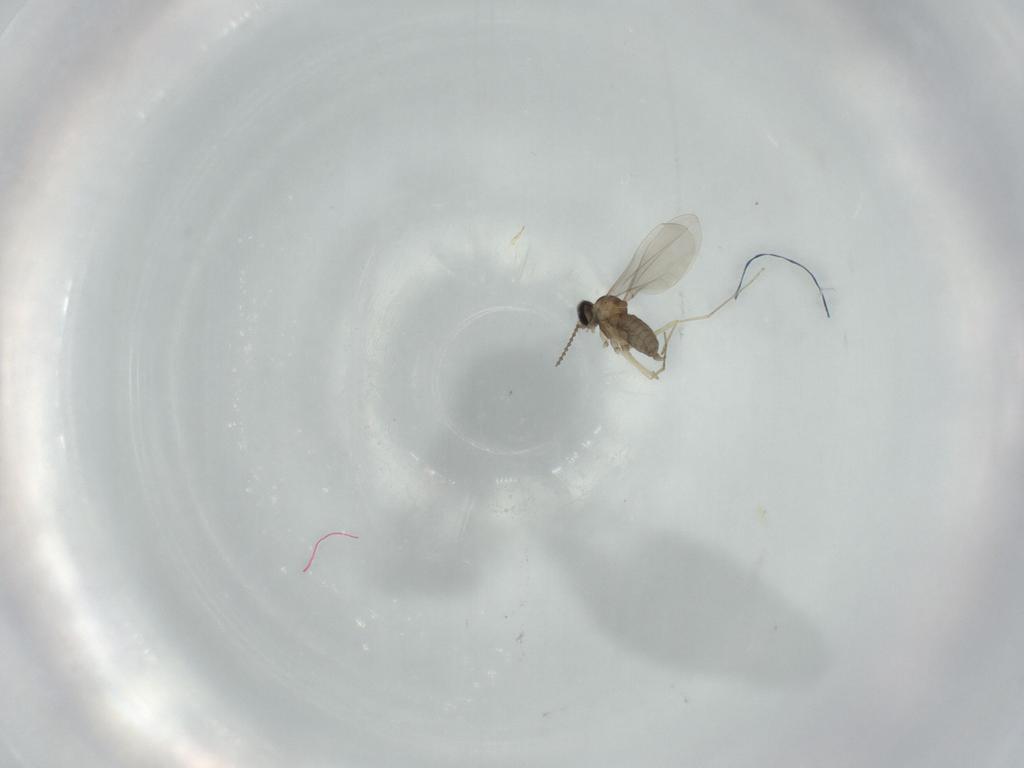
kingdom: Animalia
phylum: Arthropoda
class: Insecta
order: Diptera
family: Cecidomyiidae
